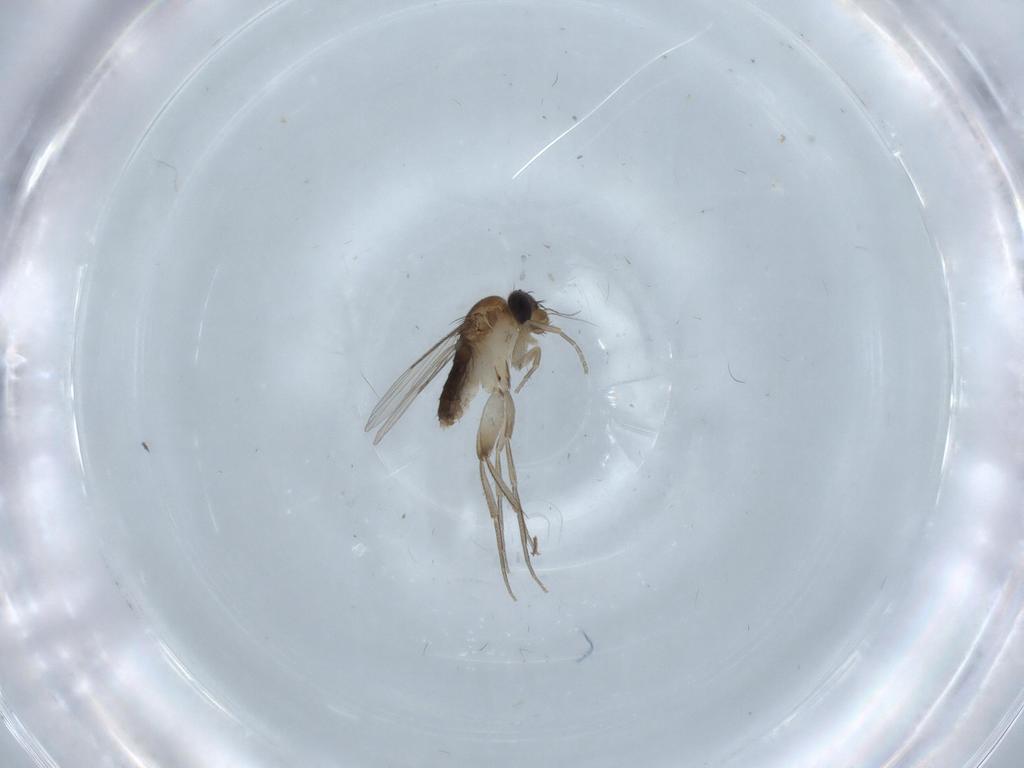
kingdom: Animalia
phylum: Arthropoda
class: Insecta
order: Diptera
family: Phoridae
